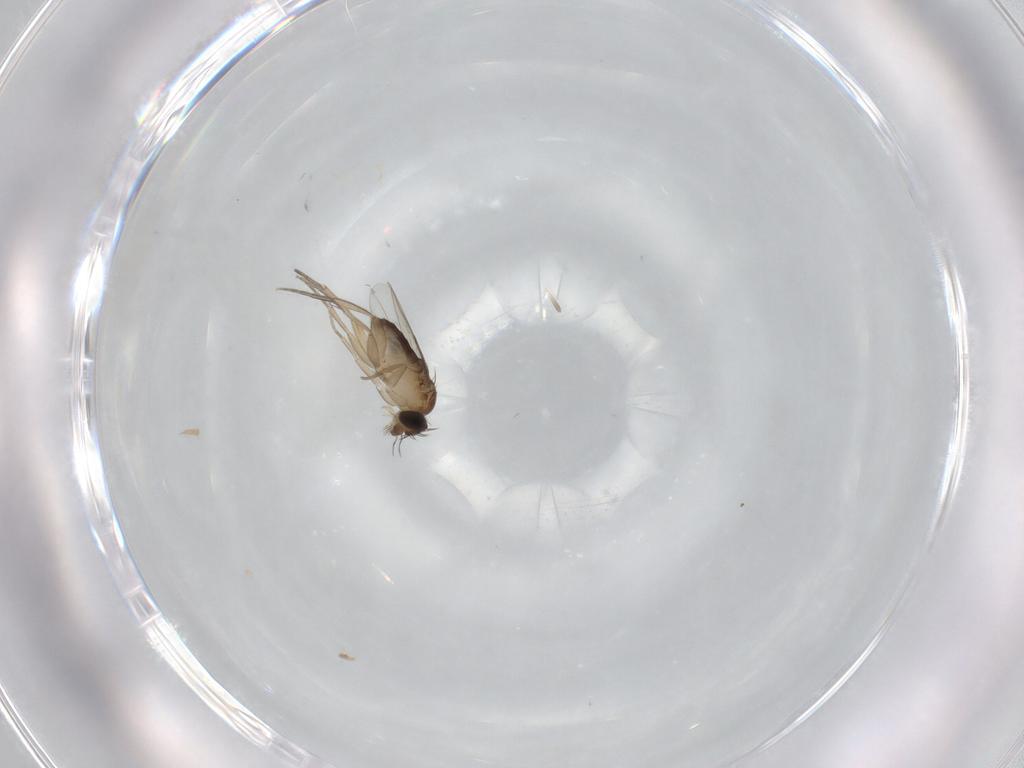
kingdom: Animalia
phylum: Arthropoda
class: Insecta
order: Diptera
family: Phoridae
